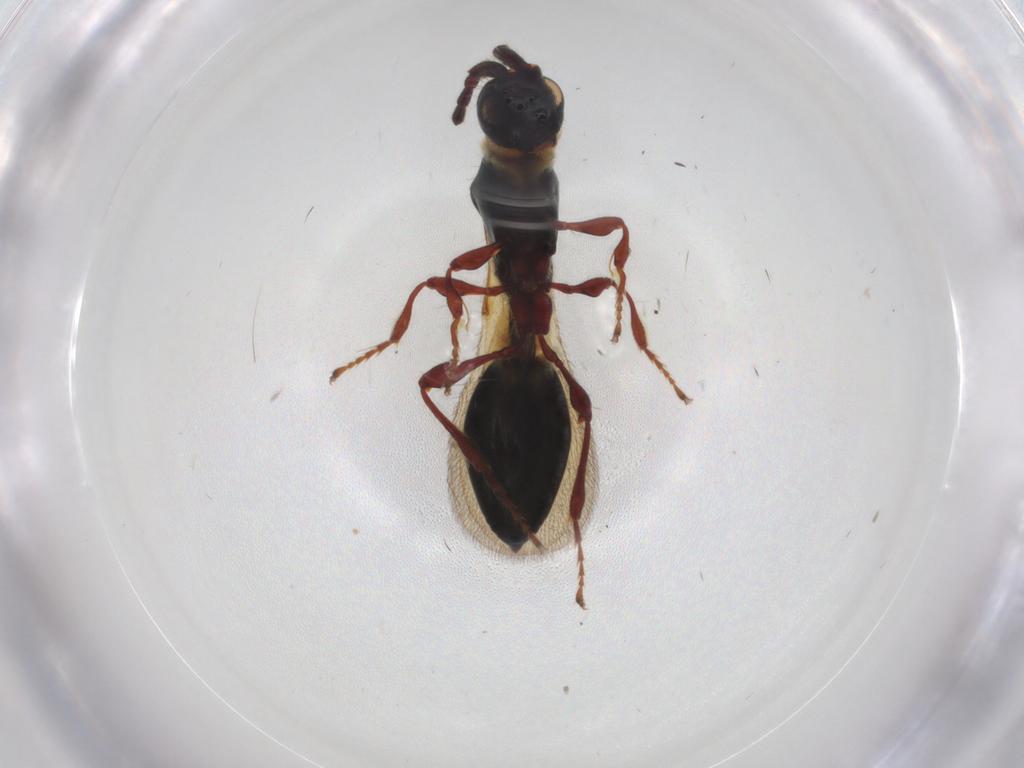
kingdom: Animalia
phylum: Arthropoda
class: Insecta
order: Hymenoptera
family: Diapriidae
